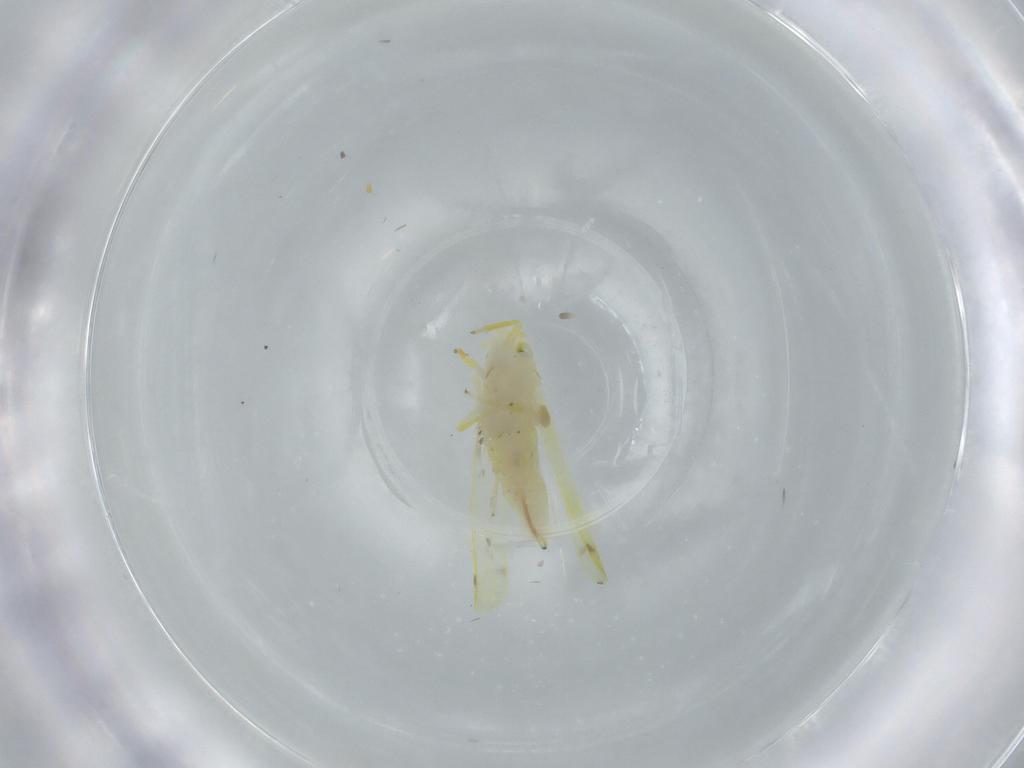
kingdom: Animalia
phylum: Arthropoda
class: Insecta
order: Hemiptera
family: Cicadellidae
